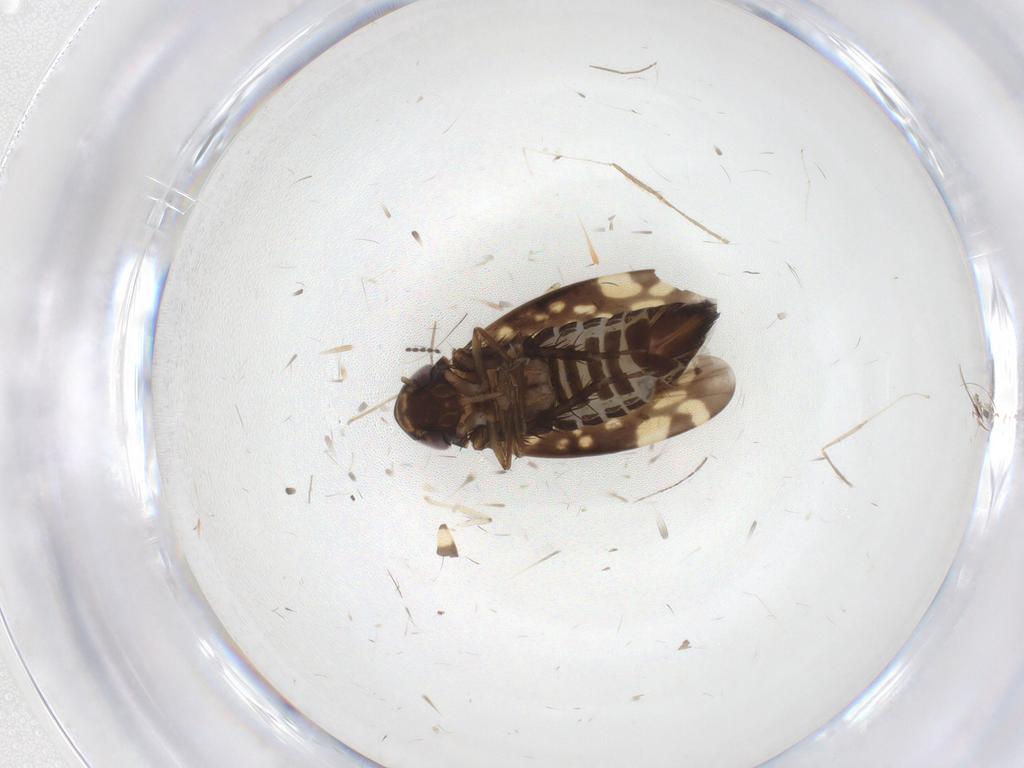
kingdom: Animalia
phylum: Arthropoda
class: Insecta
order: Hemiptera
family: Cicadellidae
